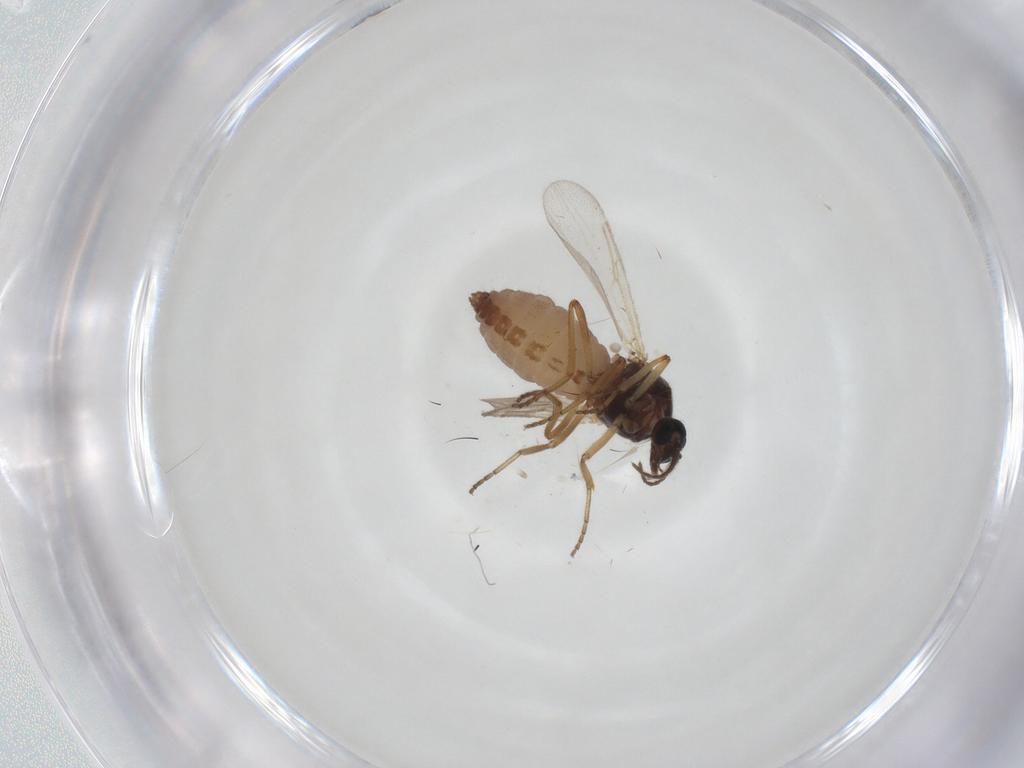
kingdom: Animalia
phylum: Arthropoda
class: Insecta
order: Diptera
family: Ceratopogonidae
